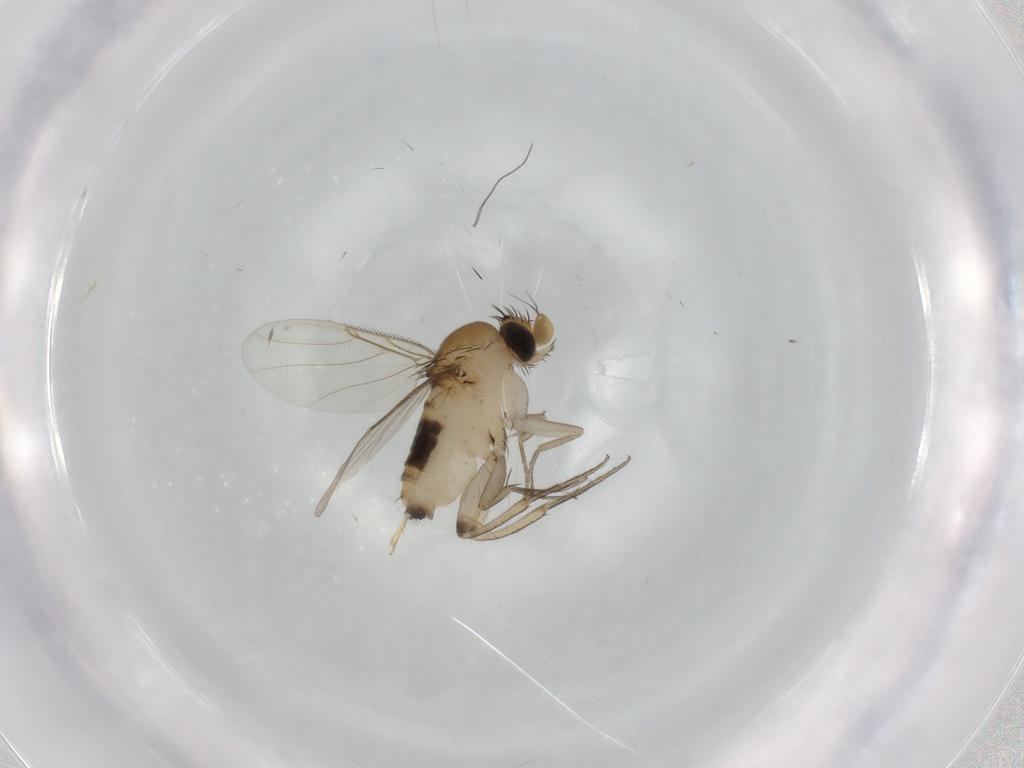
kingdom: Animalia
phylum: Arthropoda
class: Insecta
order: Diptera
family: Phoridae
